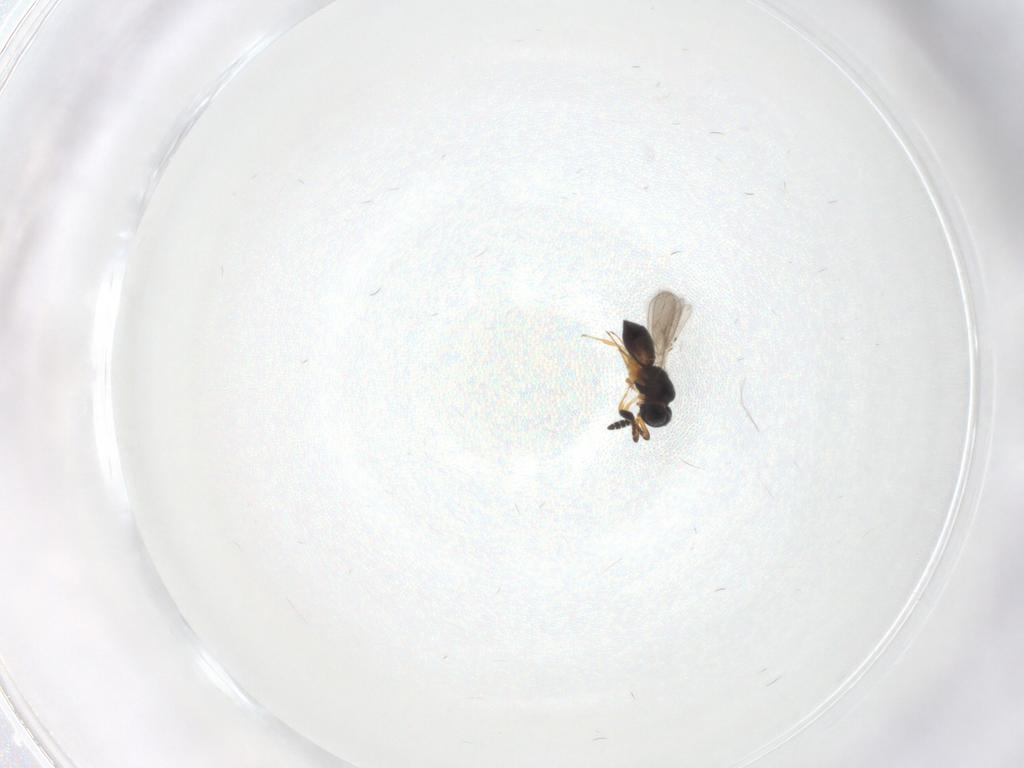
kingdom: Animalia
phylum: Arthropoda
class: Insecta
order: Hymenoptera
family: Scelionidae
